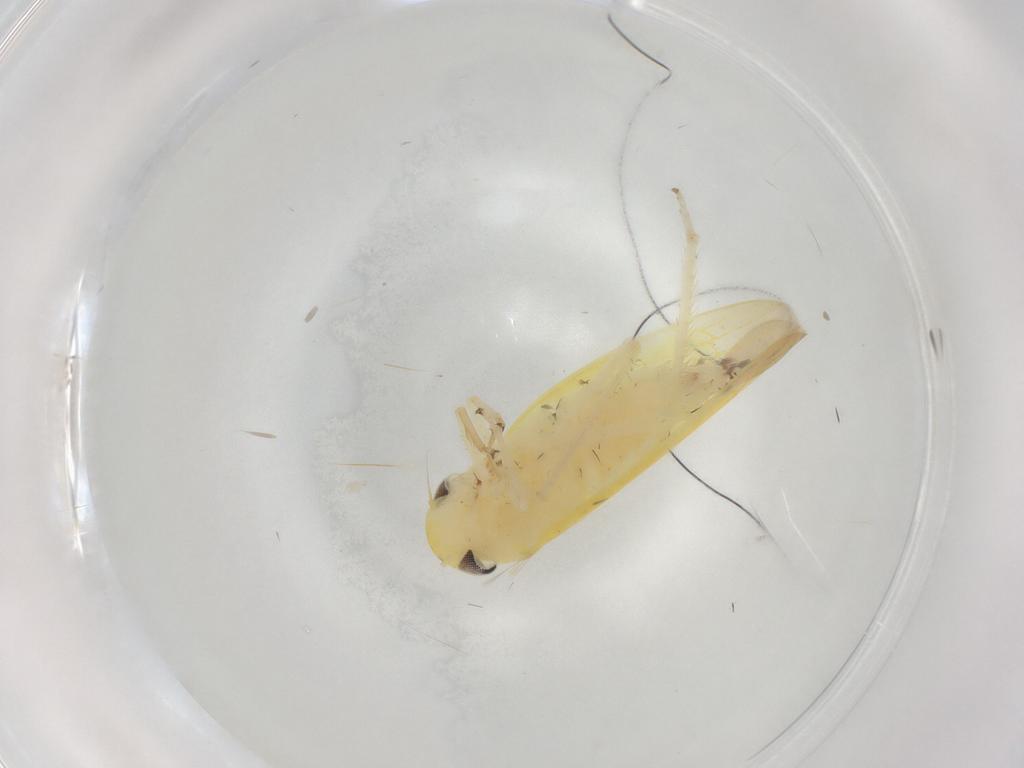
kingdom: Animalia
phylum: Arthropoda
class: Insecta
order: Hemiptera
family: Cicadellidae
